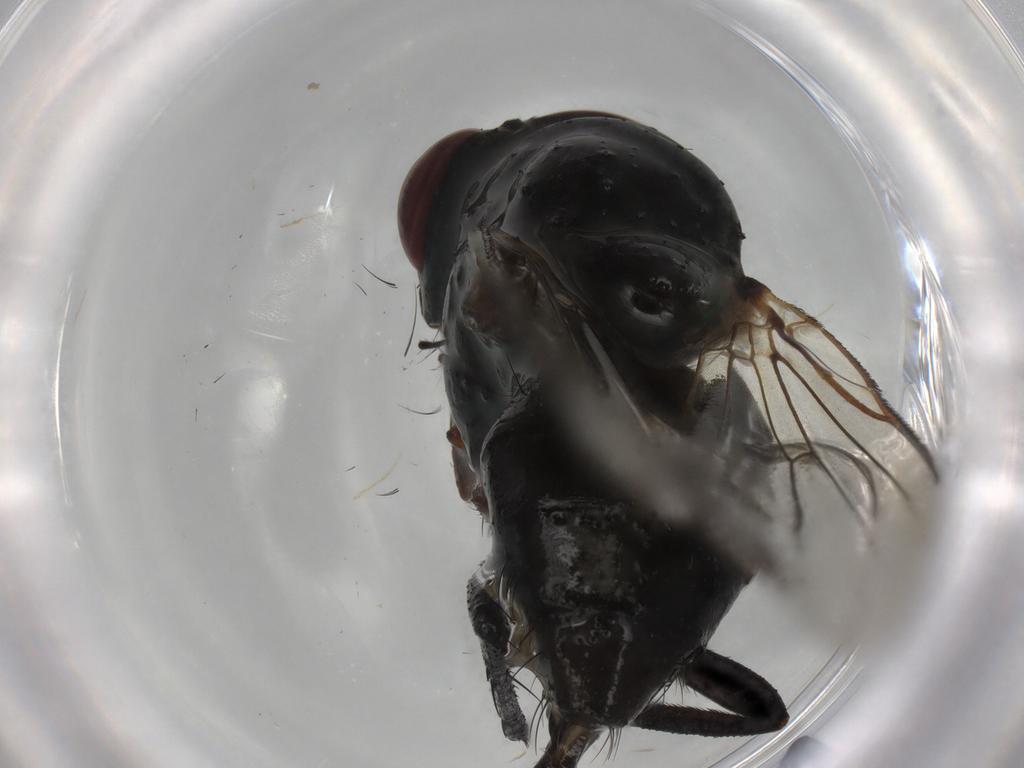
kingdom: Animalia
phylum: Arthropoda
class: Insecta
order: Diptera
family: Anthomyiidae
